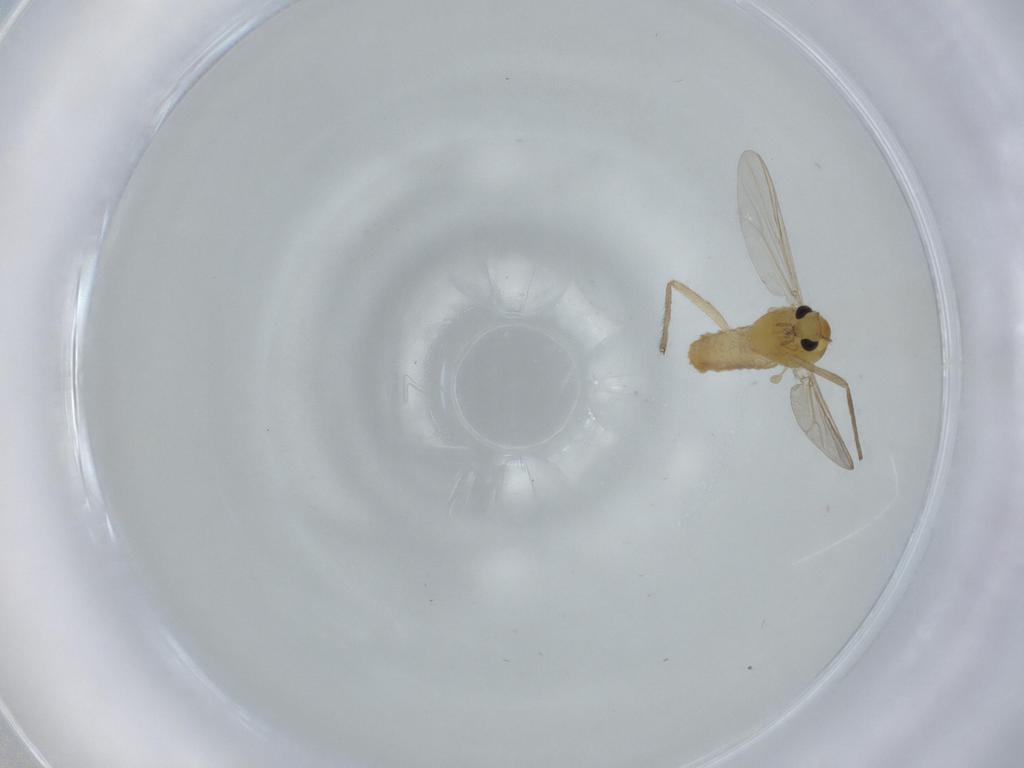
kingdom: Animalia
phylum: Arthropoda
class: Insecta
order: Diptera
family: Chironomidae
